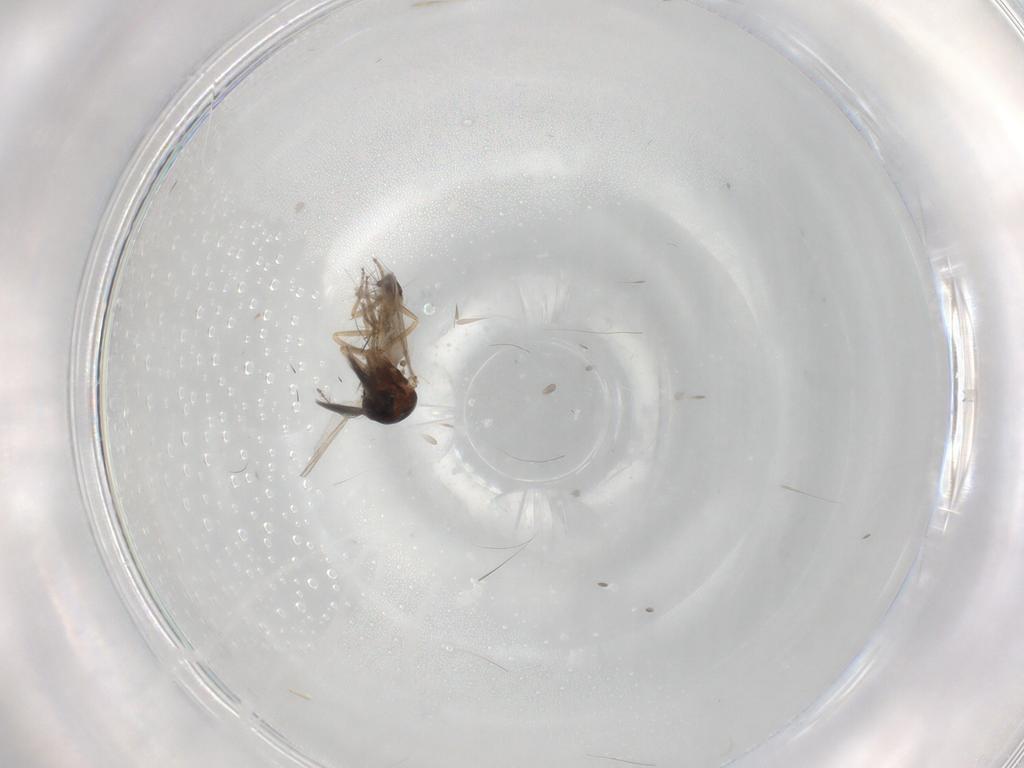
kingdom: Animalia
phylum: Arthropoda
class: Insecta
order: Diptera
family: Ceratopogonidae
